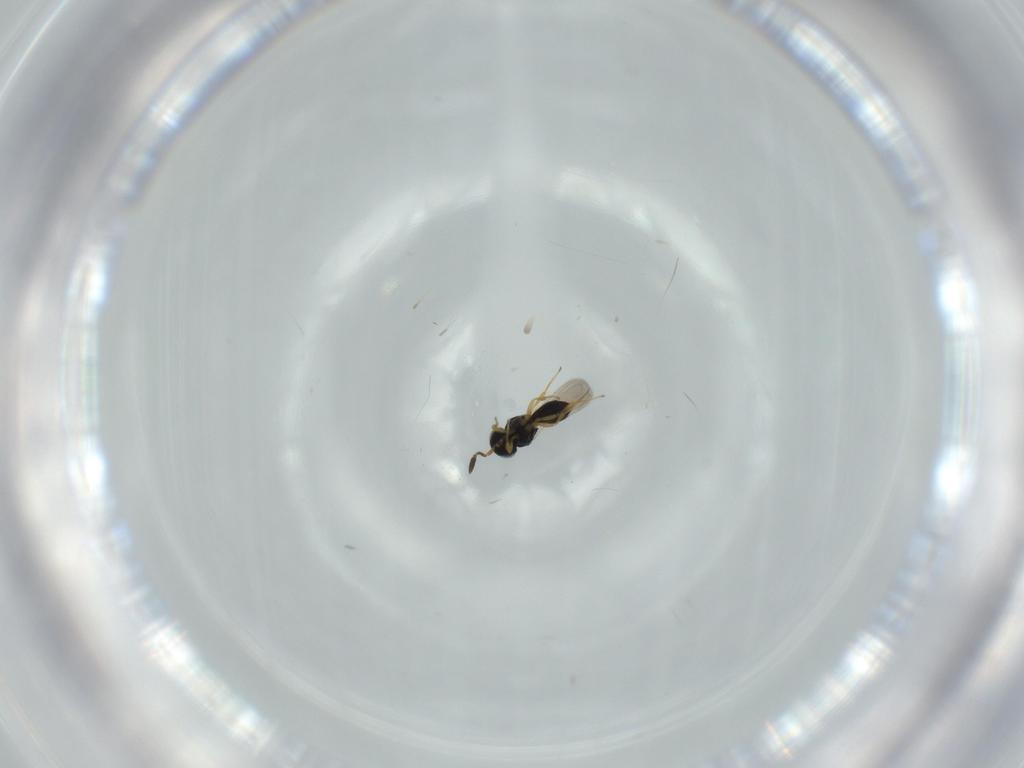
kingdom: Animalia
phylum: Arthropoda
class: Insecta
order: Hymenoptera
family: Scelionidae
